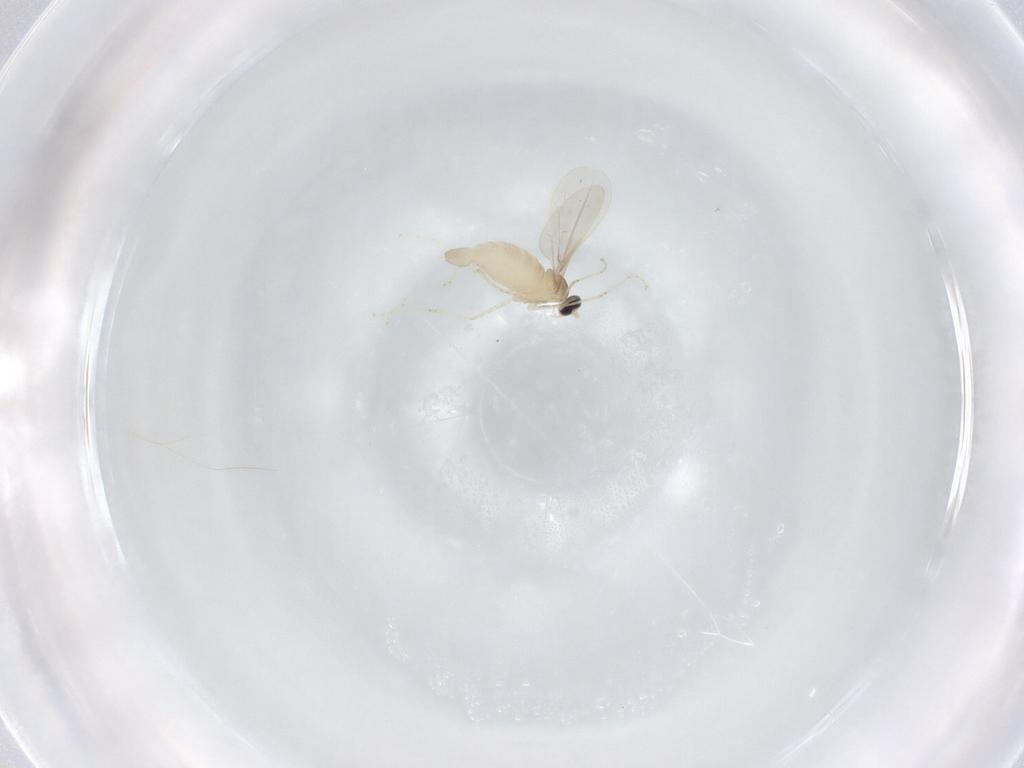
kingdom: Animalia
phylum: Arthropoda
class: Insecta
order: Diptera
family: Cecidomyiidae
